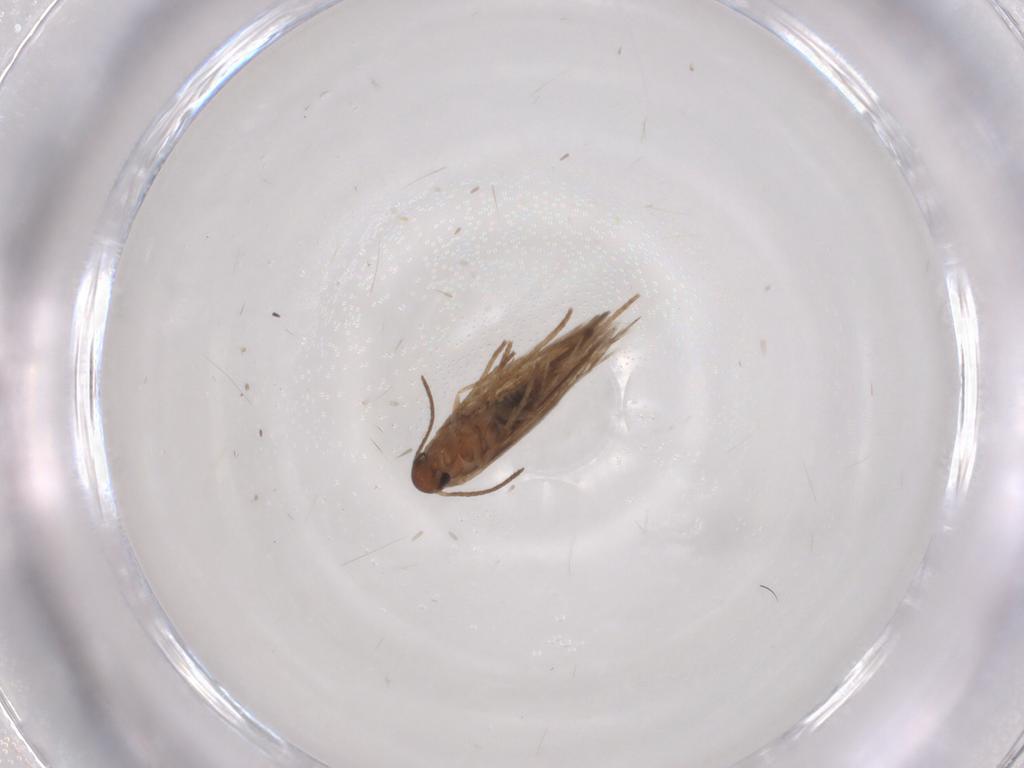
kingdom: Animalia
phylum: Arthropoda
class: Insecta
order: Lepidoptera
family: Heliozelidae
